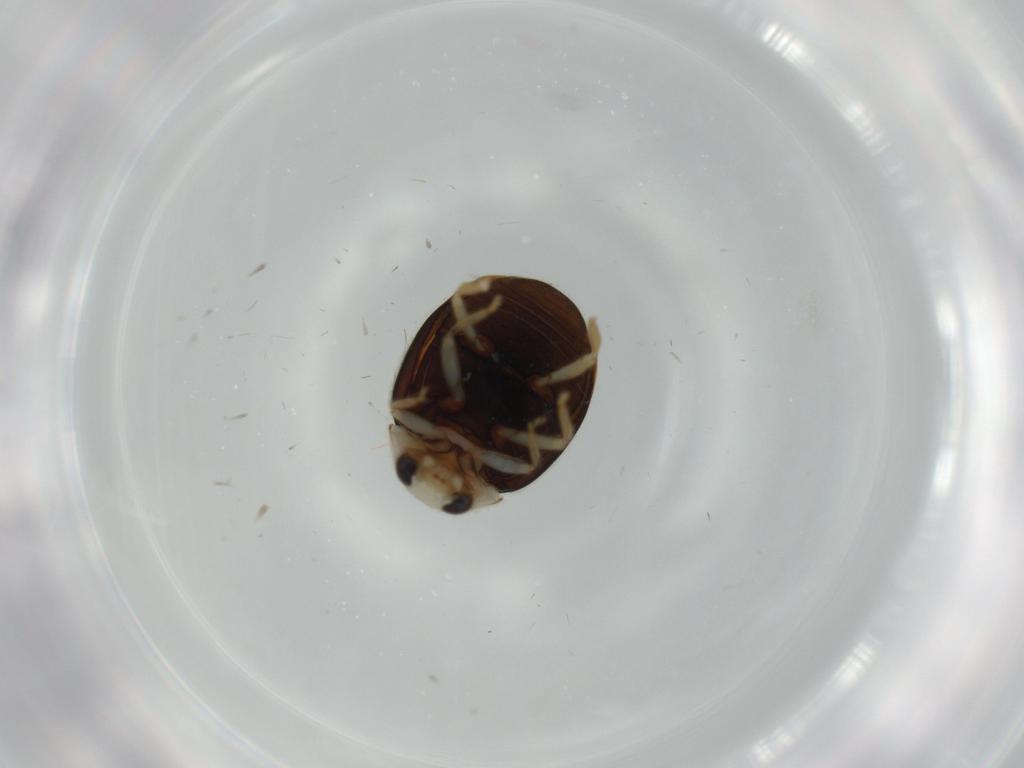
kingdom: Animalia
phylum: Arthropoda
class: Insecta
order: Coleoptera
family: Coccinellidae
